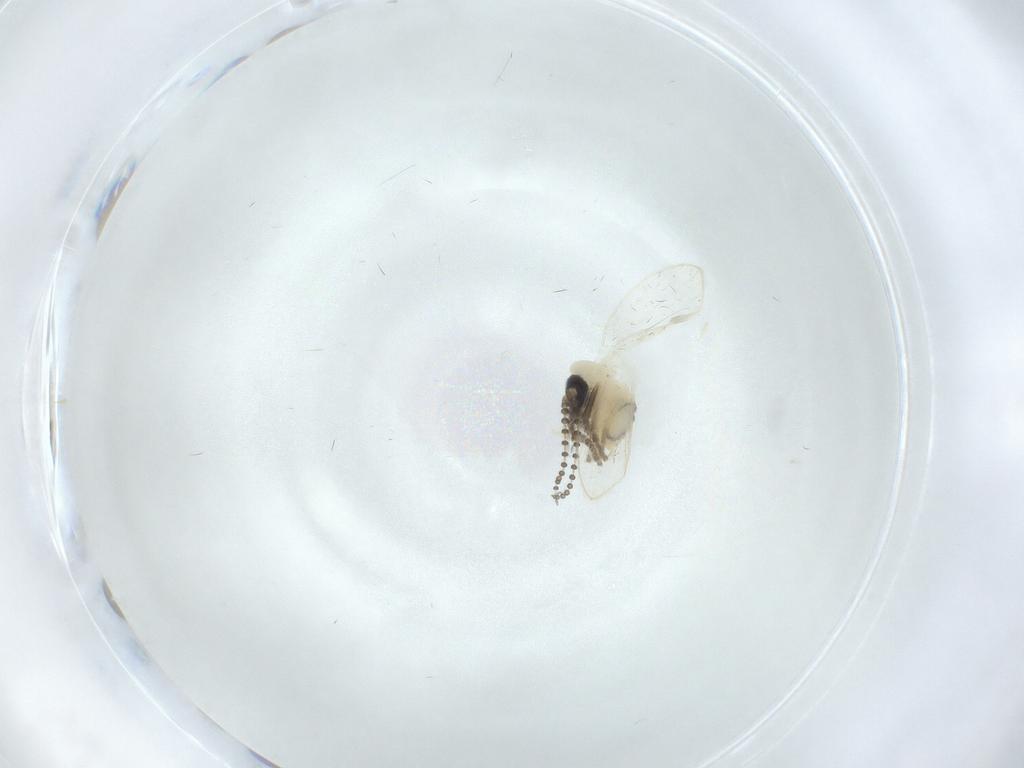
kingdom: Animalia
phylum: Arthropoda
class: Insecta
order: Diptera
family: Psychodidae
